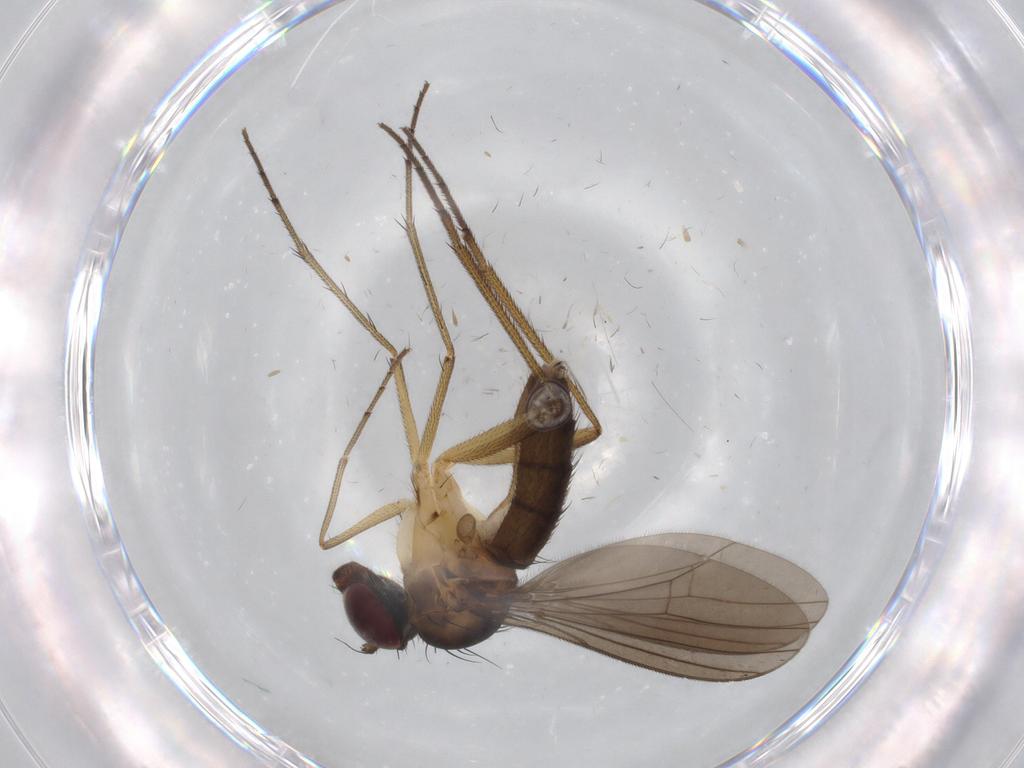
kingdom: Animalia
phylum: Arthropoda
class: Insecta
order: Diptera
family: Dolichopodidae
